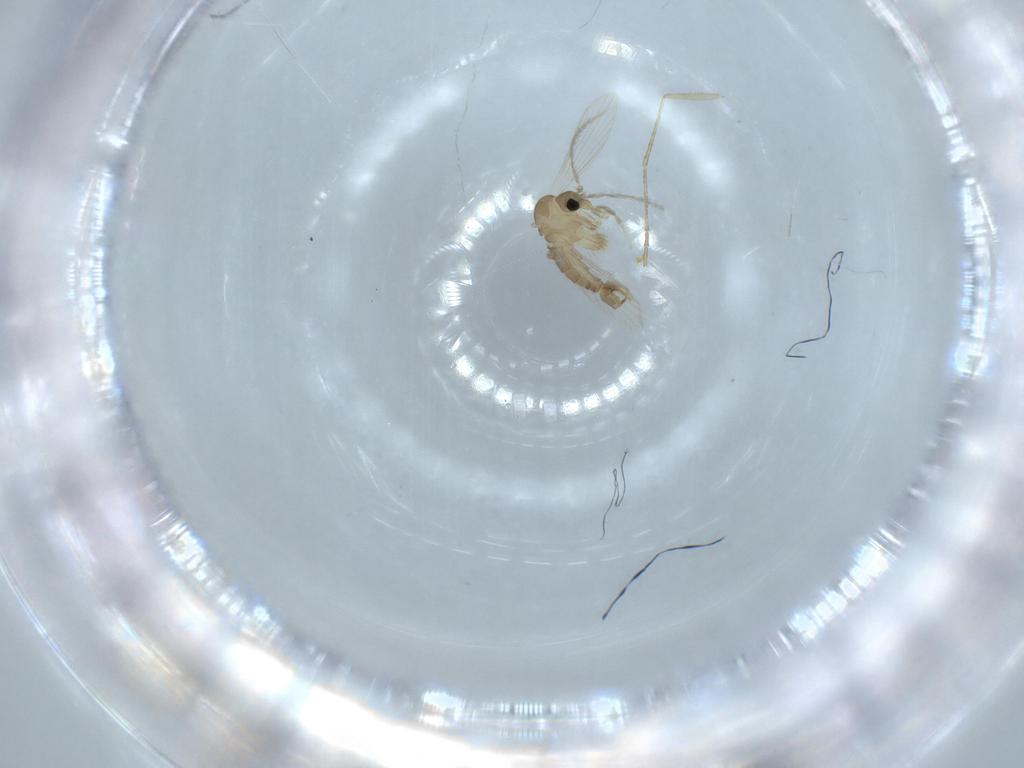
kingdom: Animalia
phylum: Arthropoda
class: Insecta
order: Diptera
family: Psychodidae
